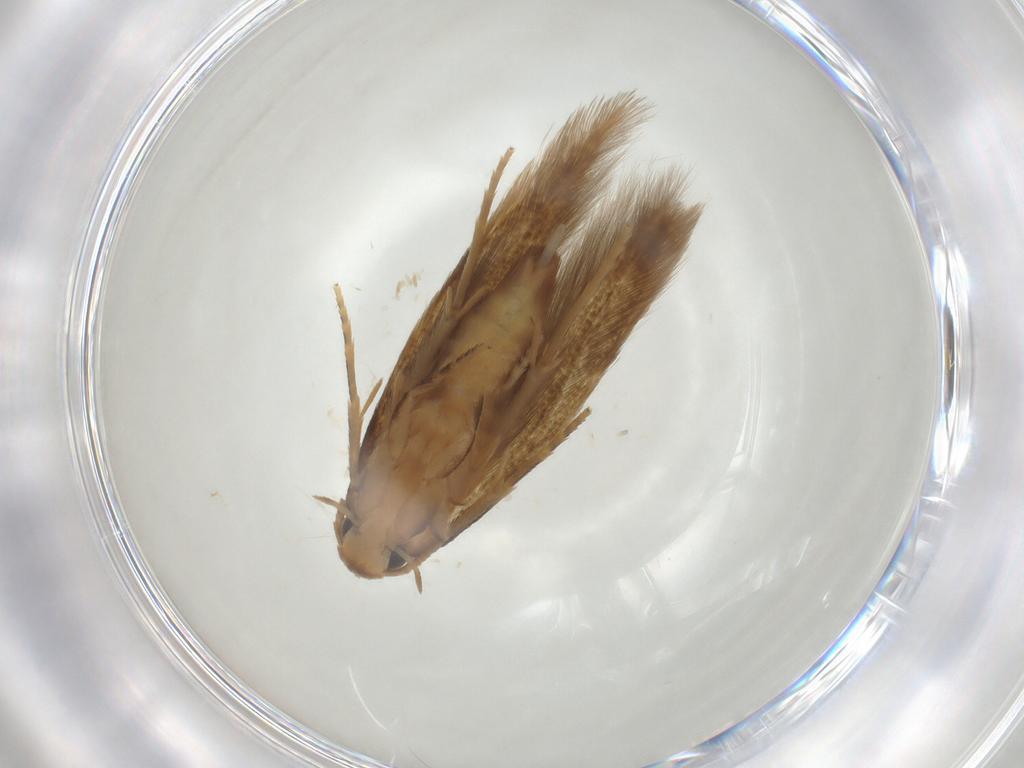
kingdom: Animalia
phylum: Arthropoda
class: Insecta
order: Lepidoptera
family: Tineidae
